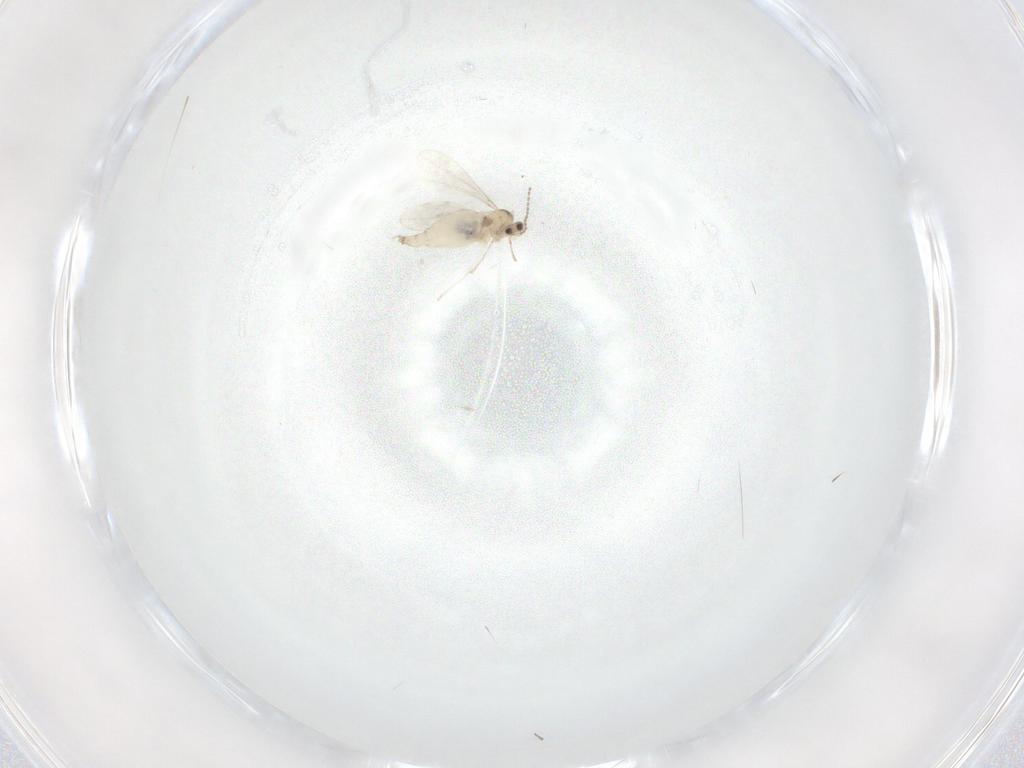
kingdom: Animalia
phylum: Arthropoda
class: Insecta
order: Diptera
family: Cecidomyiidae
